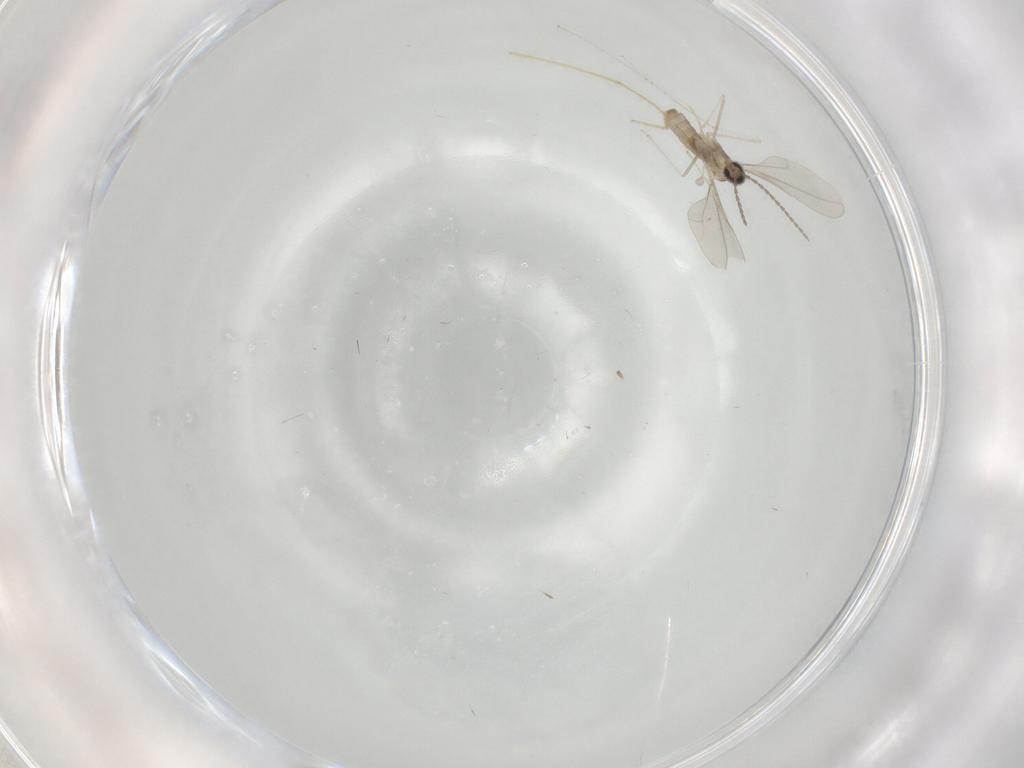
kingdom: Animalia
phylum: Arthropoda
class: Insecta
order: Diptera
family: Cecidomyiidae
